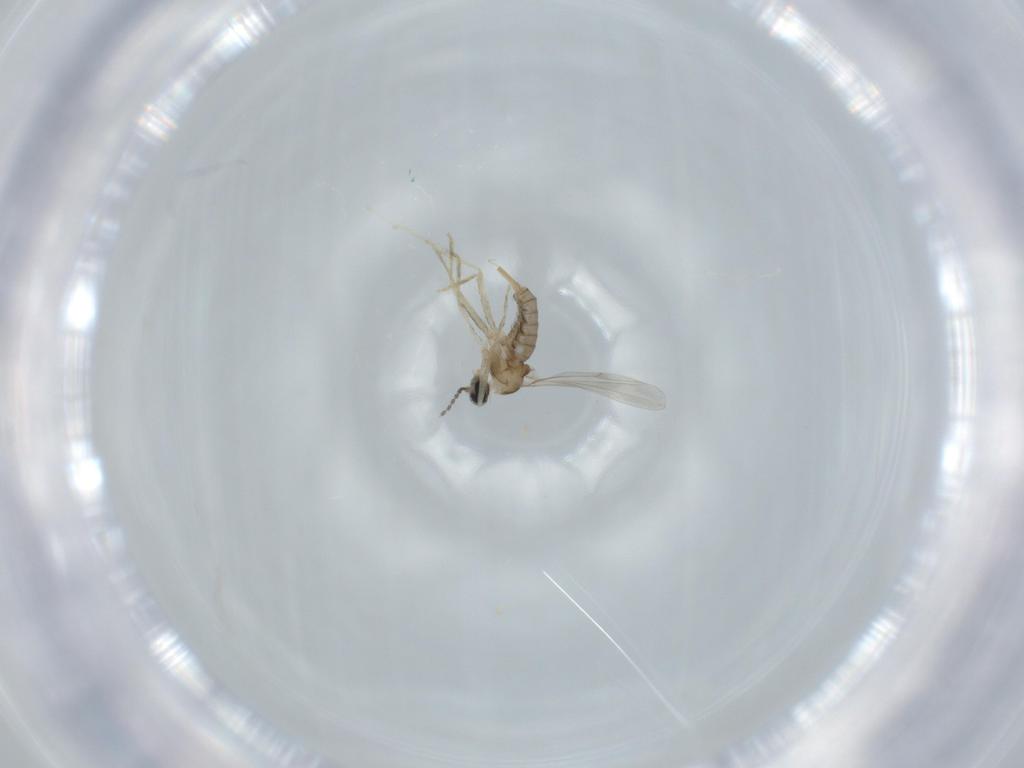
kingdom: Animalia
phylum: Arthropoda
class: Insecta
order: Diptera
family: Cecidomyiidae
